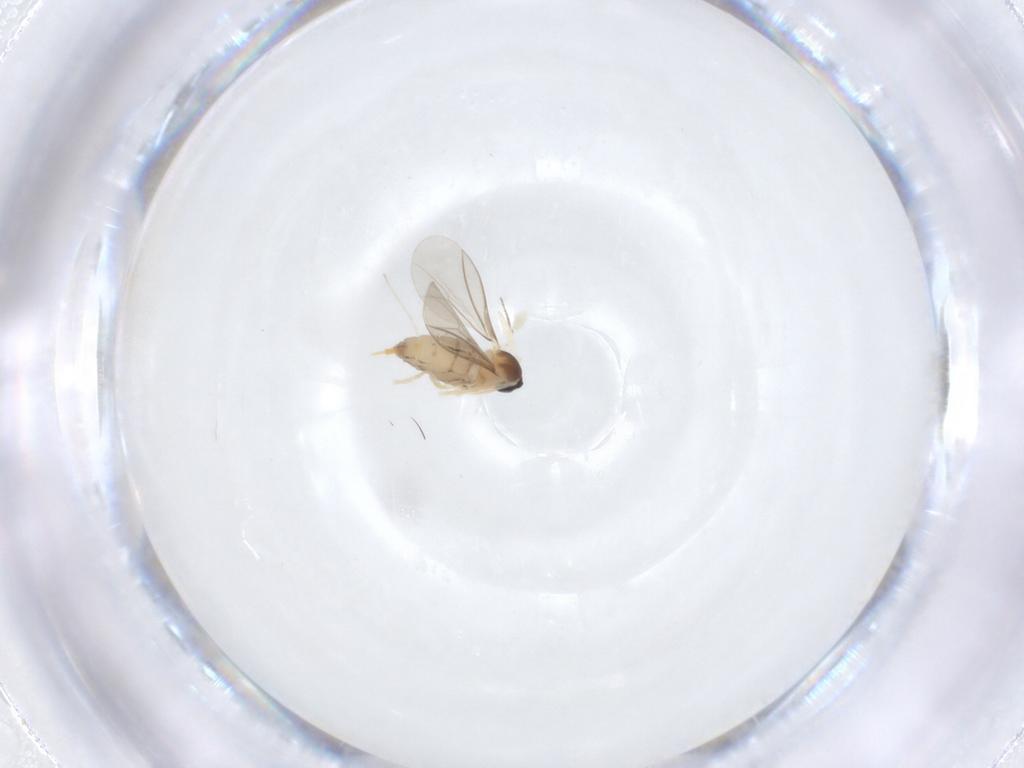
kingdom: Animalia
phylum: Arthropoda
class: Insecta
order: Diptera
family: Cecidomyiidae
